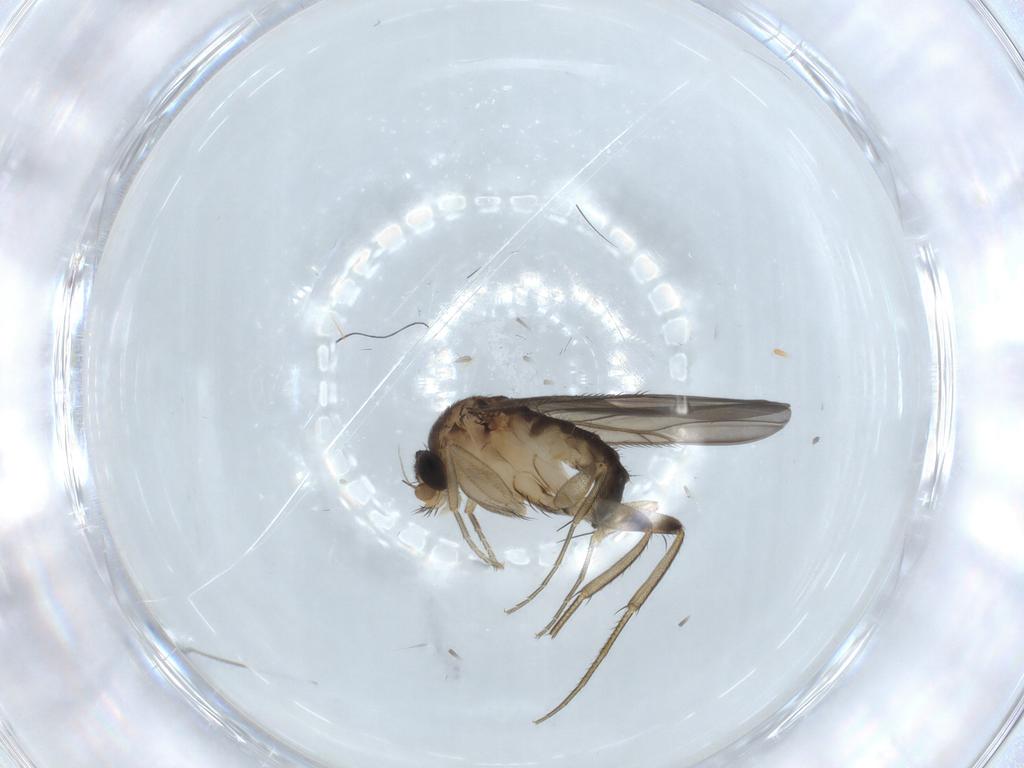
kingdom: Animalia
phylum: Arthropoda
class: Insecta
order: Diptera
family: Phoridae
